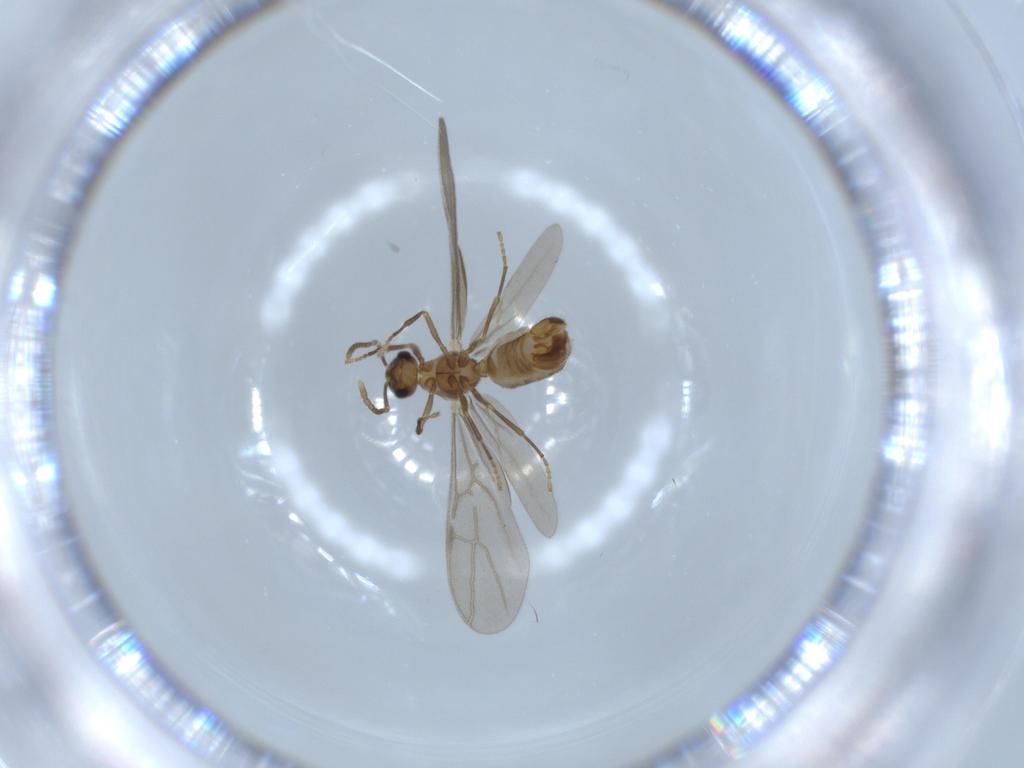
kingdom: Animalia
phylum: Arthropoda
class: Insecta
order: Hymenoptera
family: Formicidae
